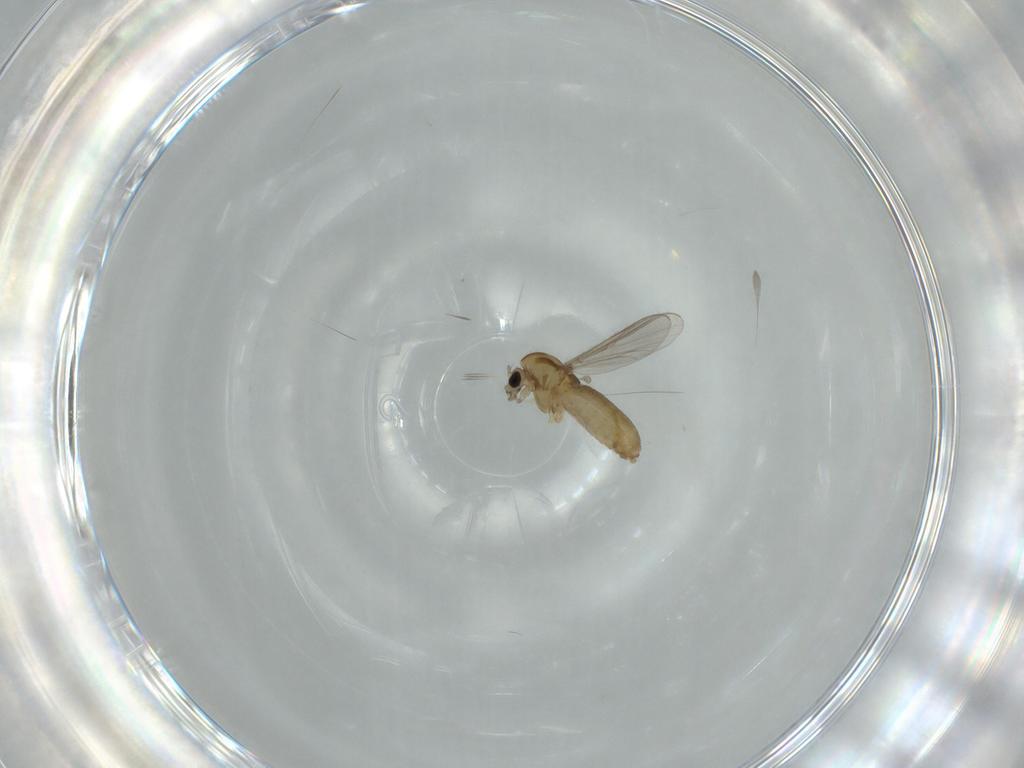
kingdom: Animalia
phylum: Arthropoda
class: Insecta
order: Diptera
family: Chironomidae
